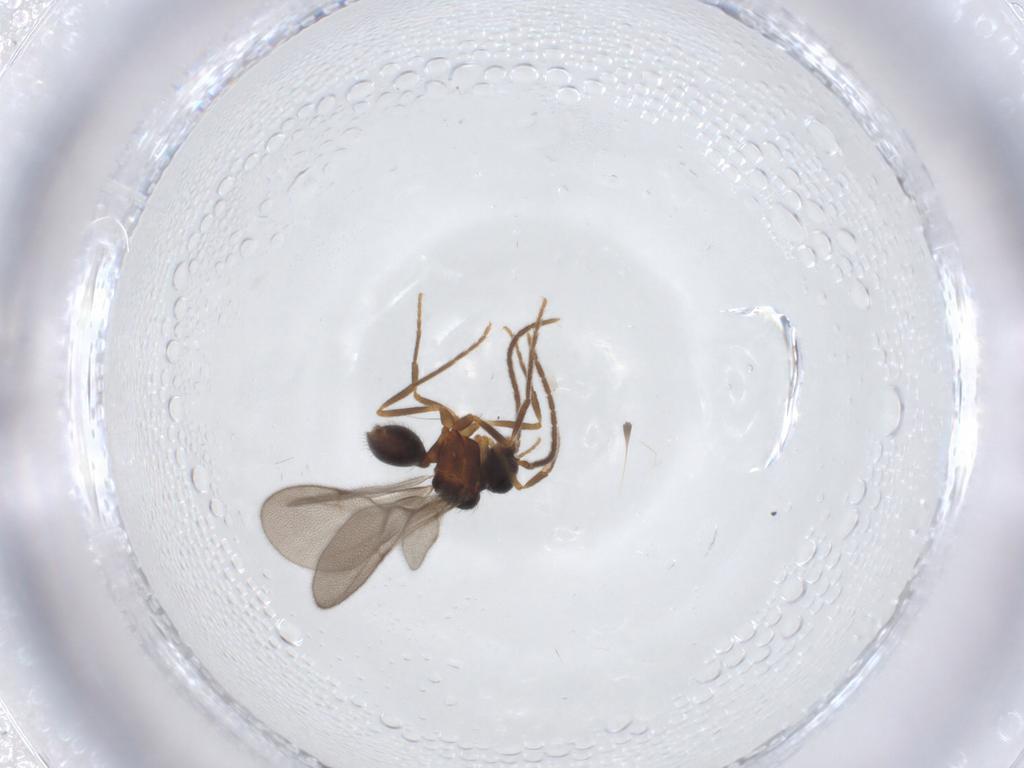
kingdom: Animalia
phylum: Arthropoda
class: Insecta
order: Hymenoptera
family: Formicidae
